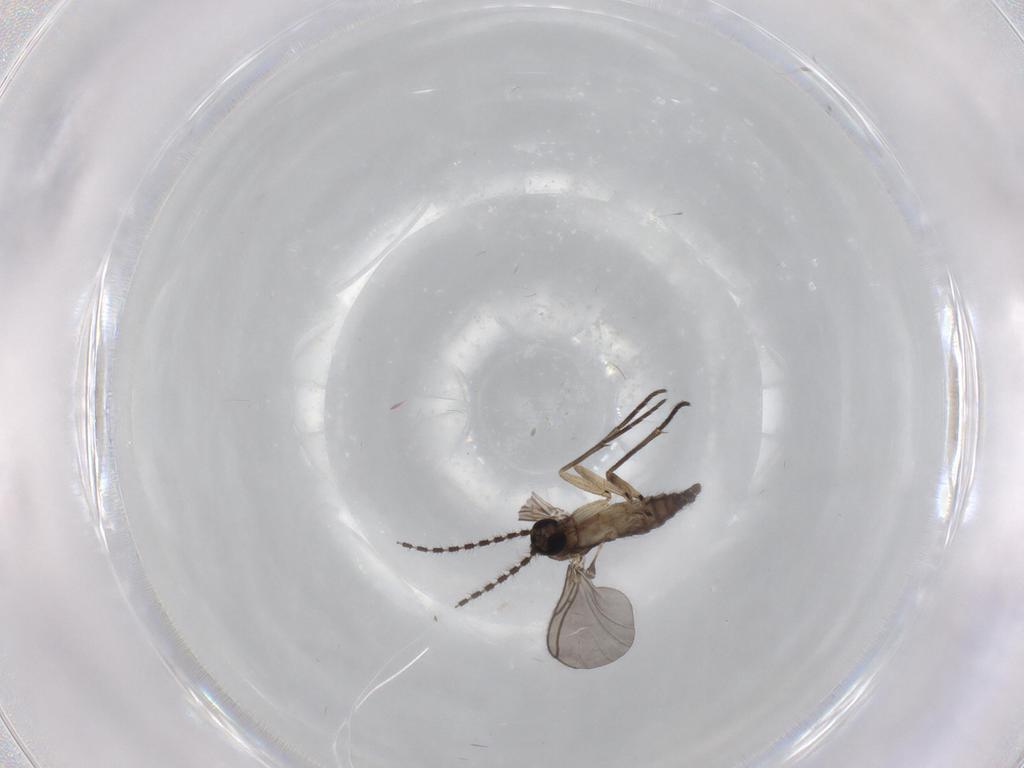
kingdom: Animalia
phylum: Arthropoda
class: Insecta
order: Diptera
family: Sciaridae
